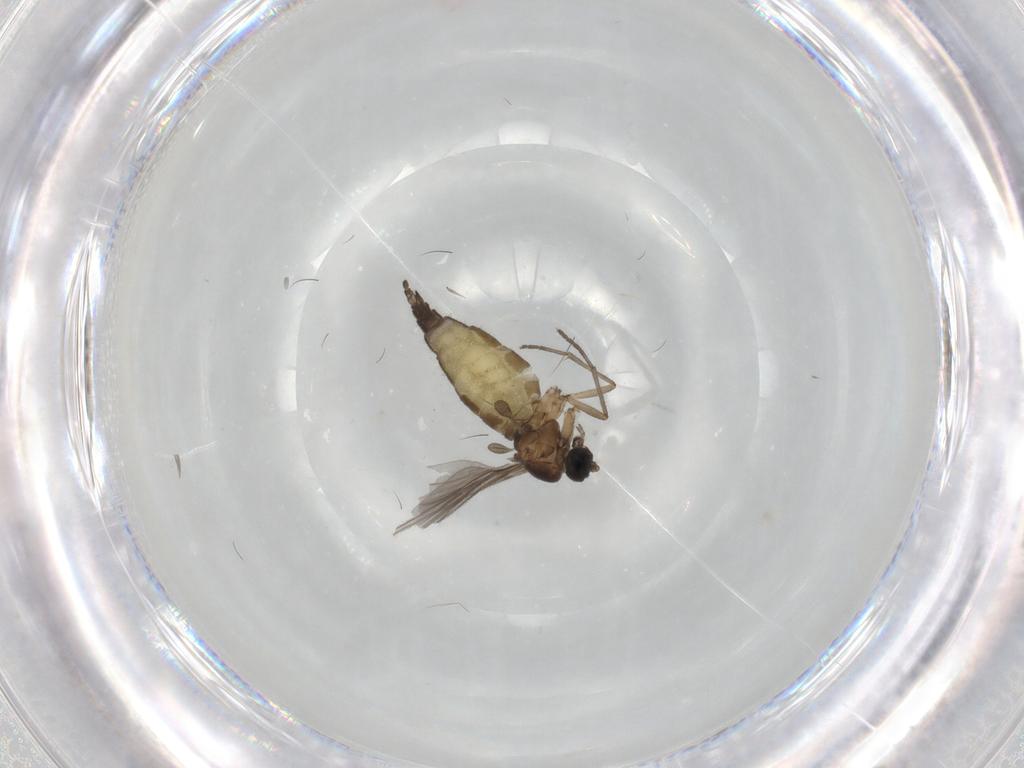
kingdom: Animalia
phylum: Arthropoda
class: Insecta
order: Diptera
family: Sciaridae
